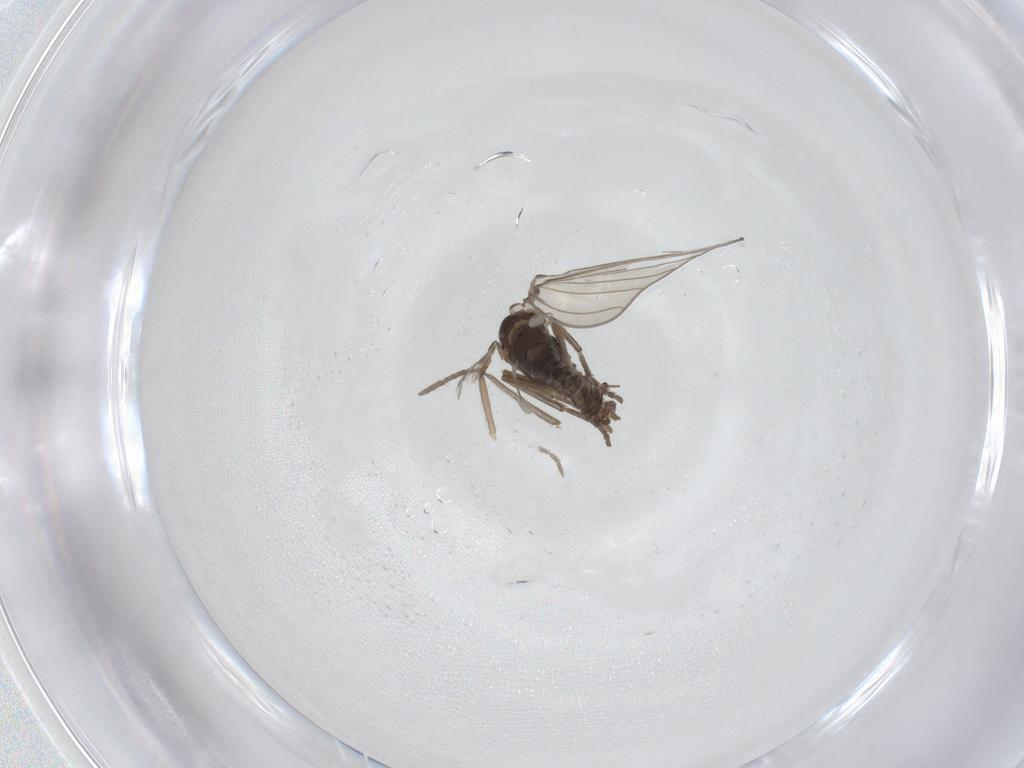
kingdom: Animalia
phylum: Arthropoda
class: Insecta
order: Diptera
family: Psychodidae
